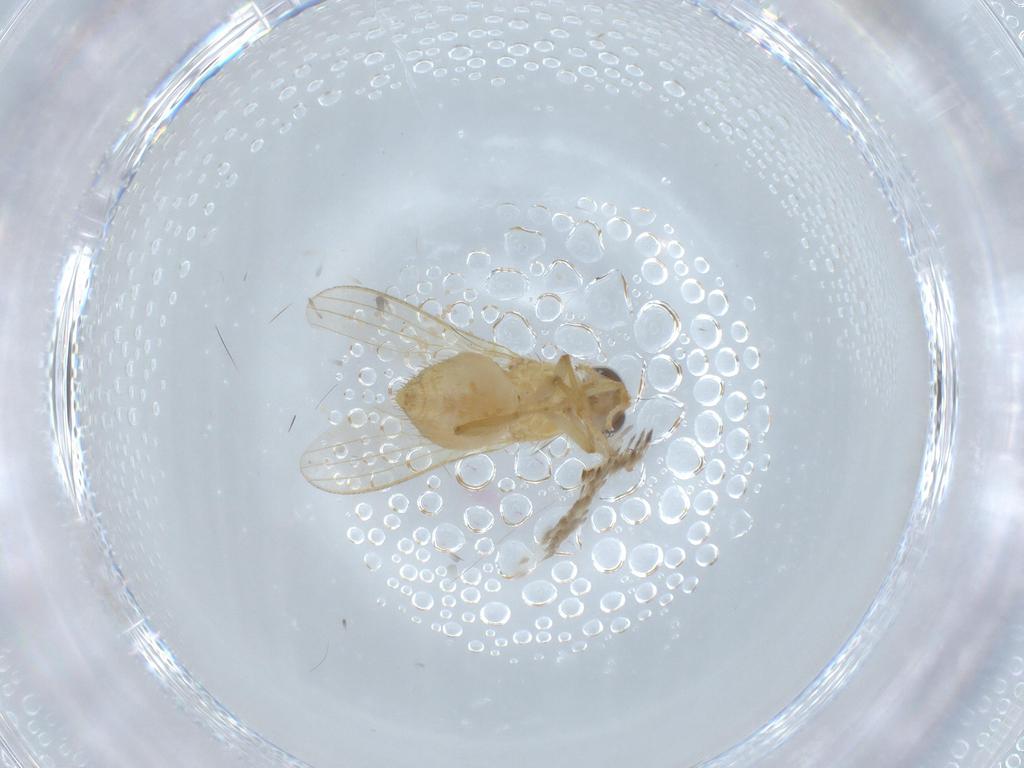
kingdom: Animalia
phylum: Arthropoda
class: Insecta
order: Diptera
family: Chyromyidae
